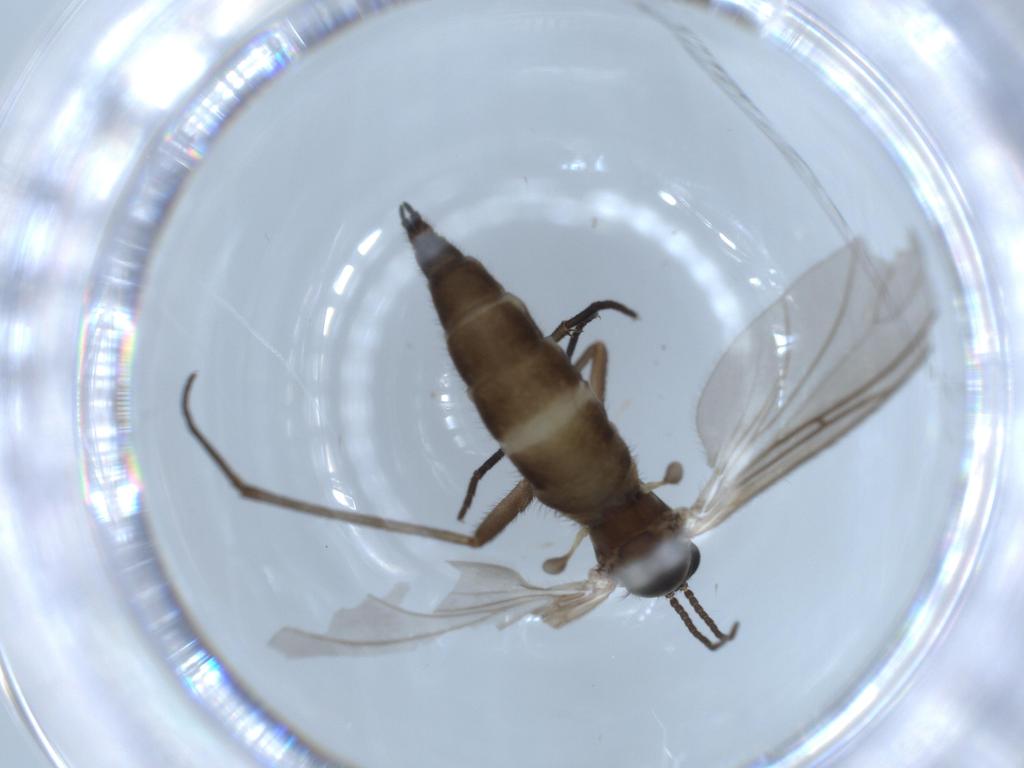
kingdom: Animalia
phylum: Arthropoda
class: Insecta
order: Diptera
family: Sciaridae
